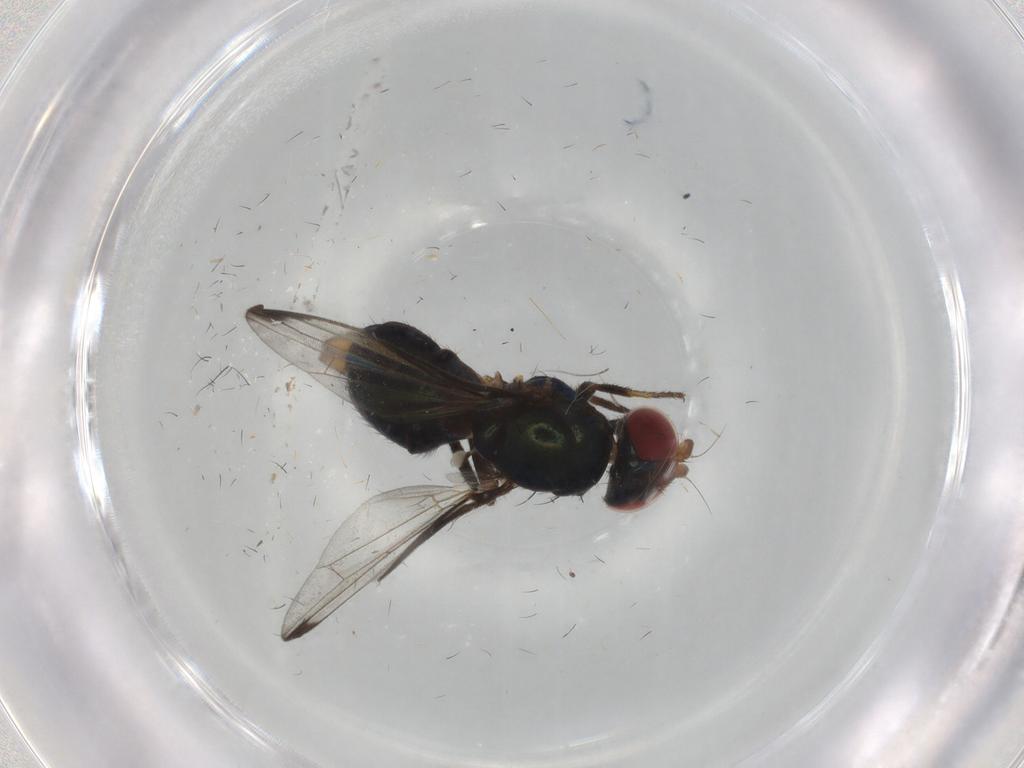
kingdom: Animalia
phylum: Arthropoda
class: Insecta
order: Diptera
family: Ulidiidae
